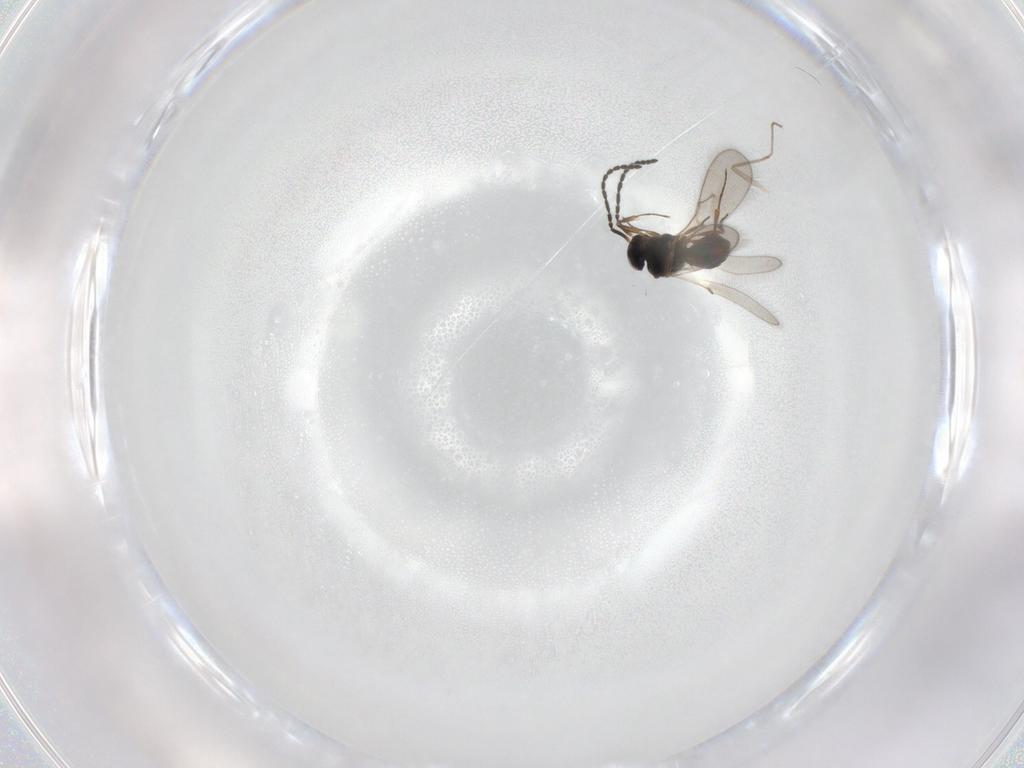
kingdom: Animalia
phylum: Arthropoda
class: Insecta
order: Hymenoptera
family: Scelionidae
